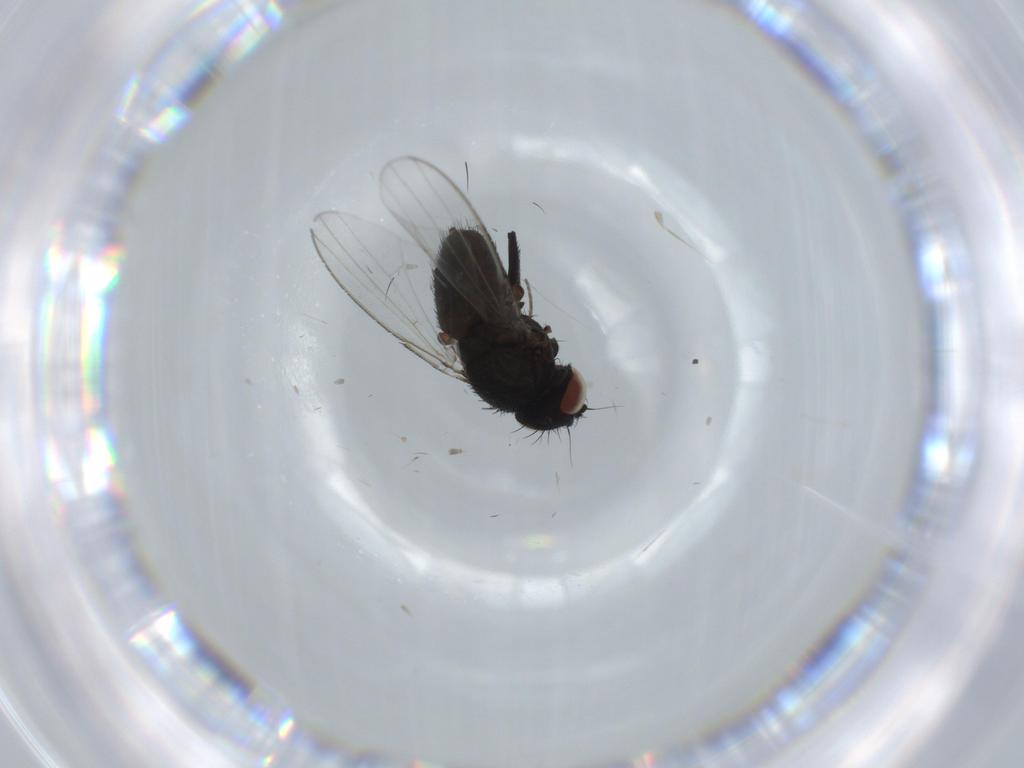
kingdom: Animalia
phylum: Arthropoda
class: Insecta
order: Diptera
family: Milichiidae
